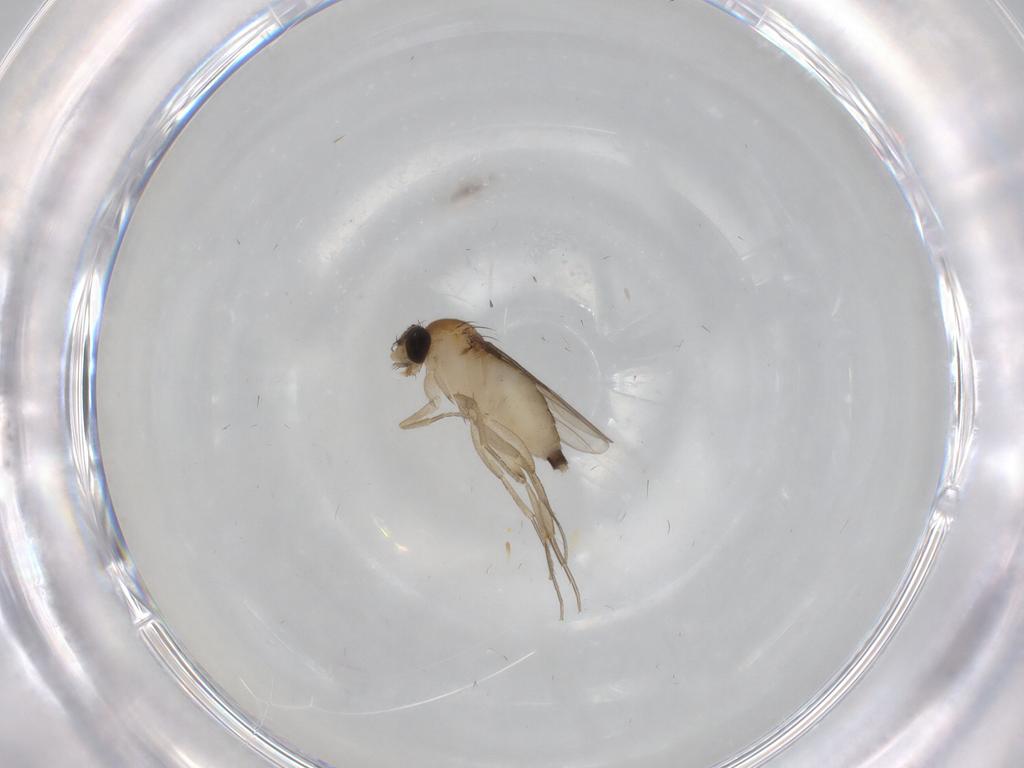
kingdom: Animalia
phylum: Arthropoda
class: Insecta
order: Diptera
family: Phoridae
